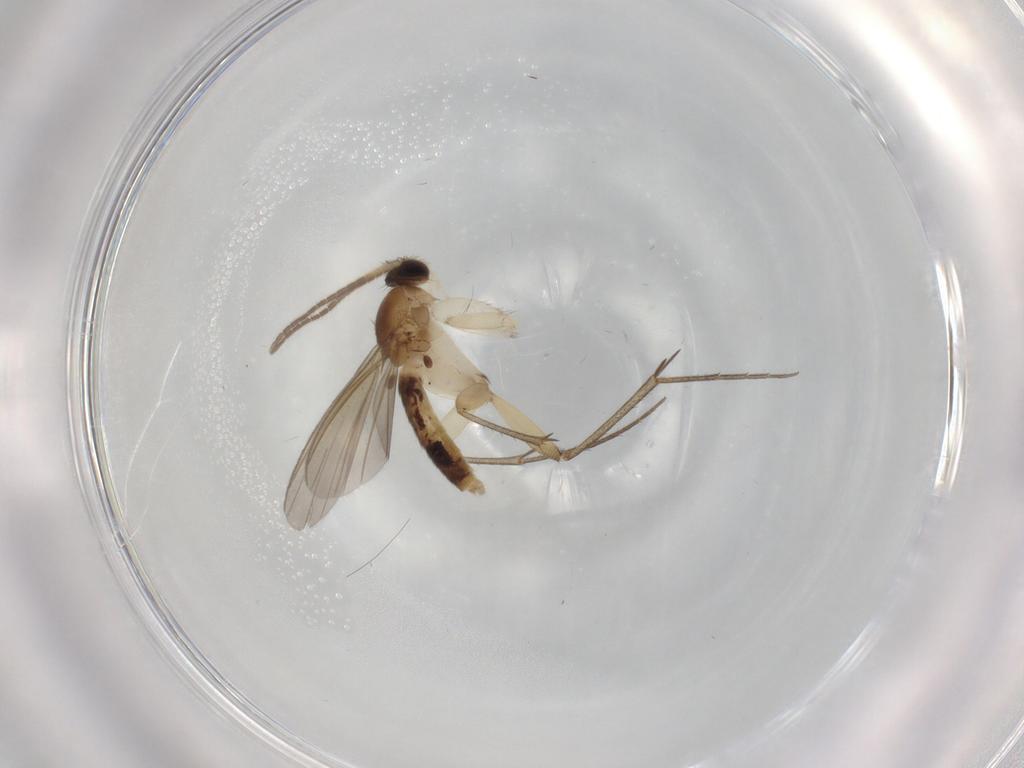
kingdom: Animalia
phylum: Arthropoda
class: Insecta
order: Diptera
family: Mycetophilidae
